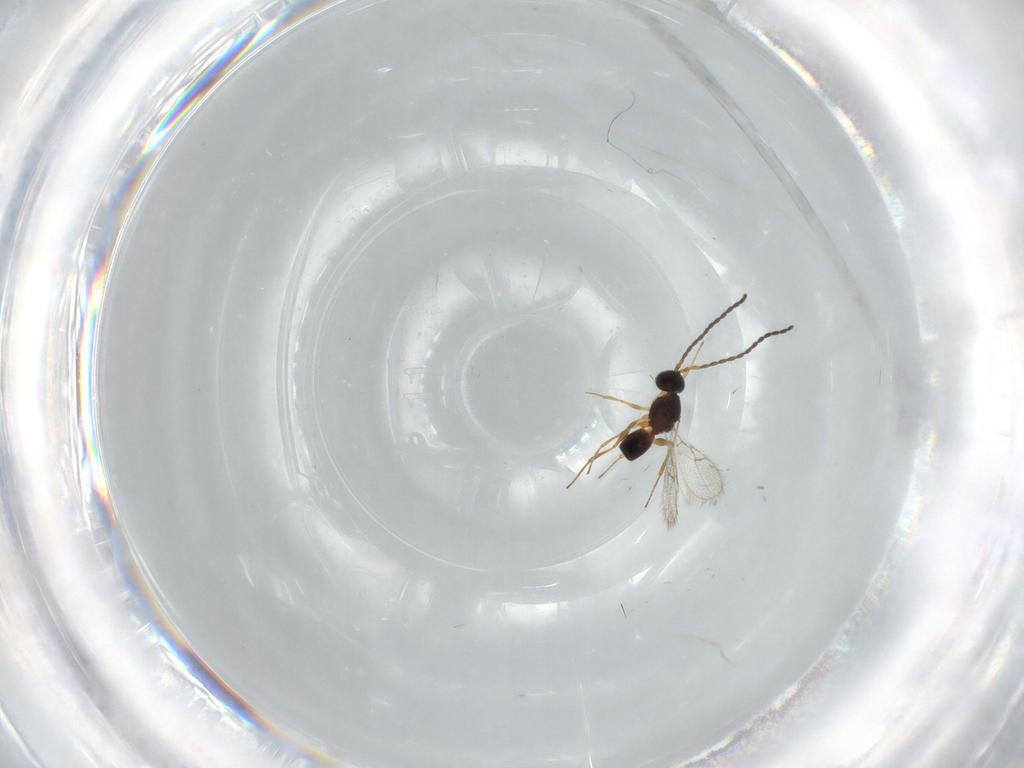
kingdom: Animalia
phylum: Arthropoda
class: Insecta
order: Hymenoptera
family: Figitidae
